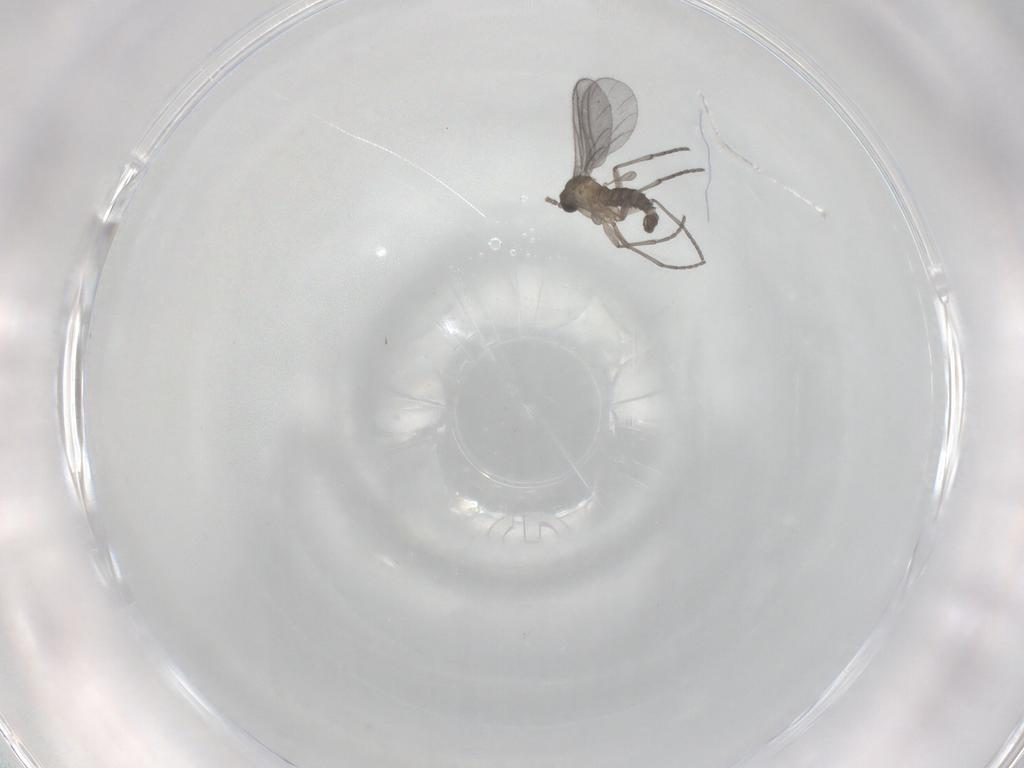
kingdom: Animalia
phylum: Arthropoda
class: Insecta
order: Diptera
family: Sciaridae
